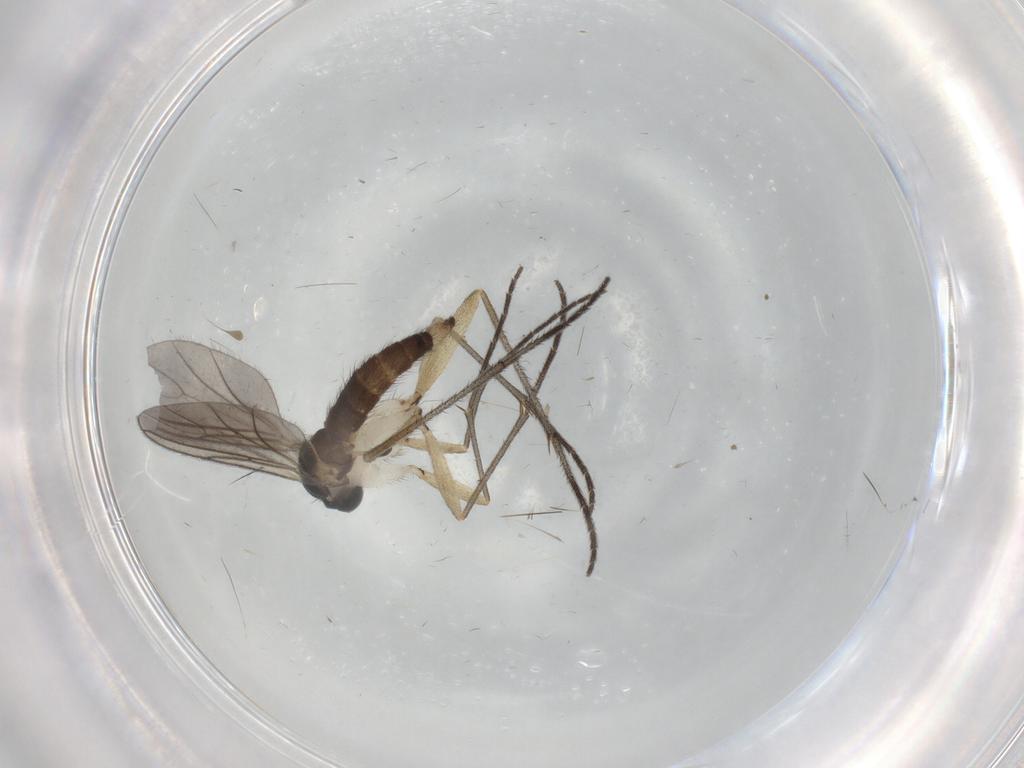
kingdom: Animalia
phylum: Arthropoda
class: Insecta
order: Diptera
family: Sciaridae
